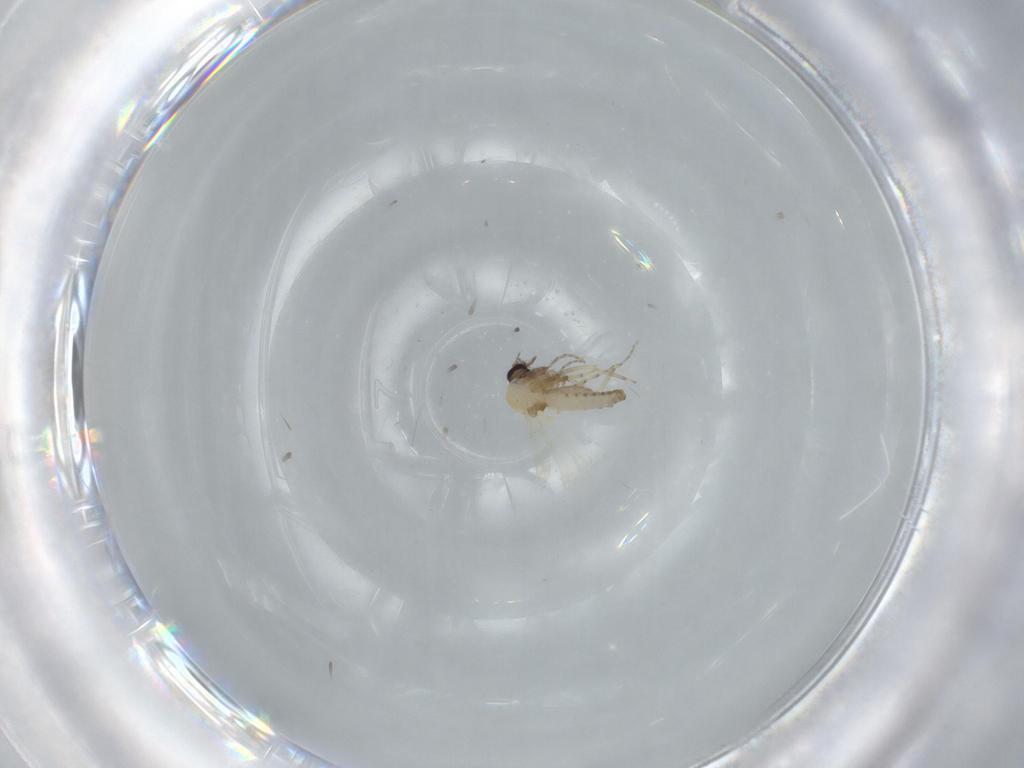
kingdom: Animalia
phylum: Arthropoda
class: Insecta
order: Diptera
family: Ceratopogonidae
